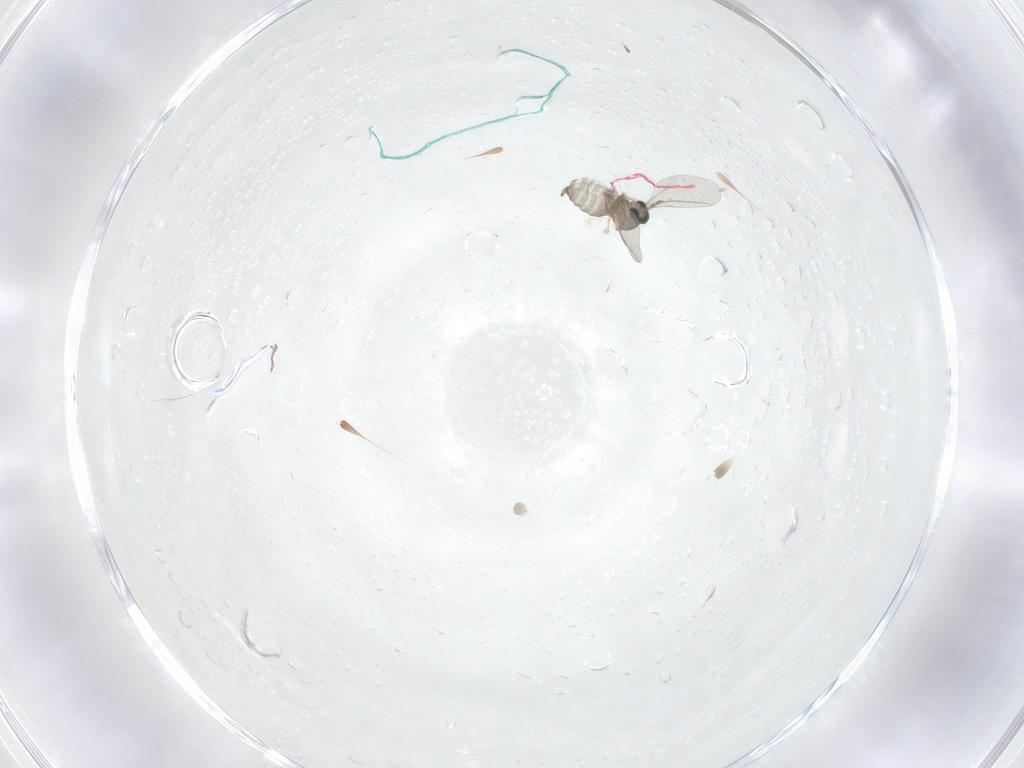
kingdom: Animalia
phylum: Arthropoda
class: Insecta
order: Diptera
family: Cecidomyiidae
